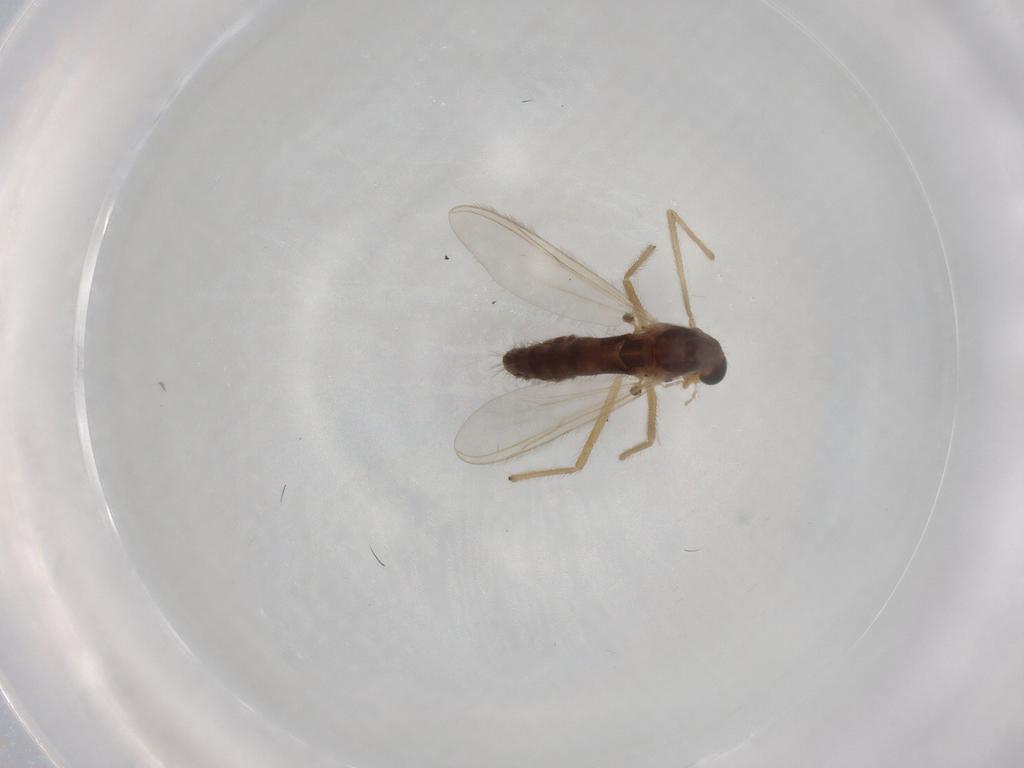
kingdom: Animalia
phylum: Arthropoda
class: Insecta
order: Diptera
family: Chironomidae
